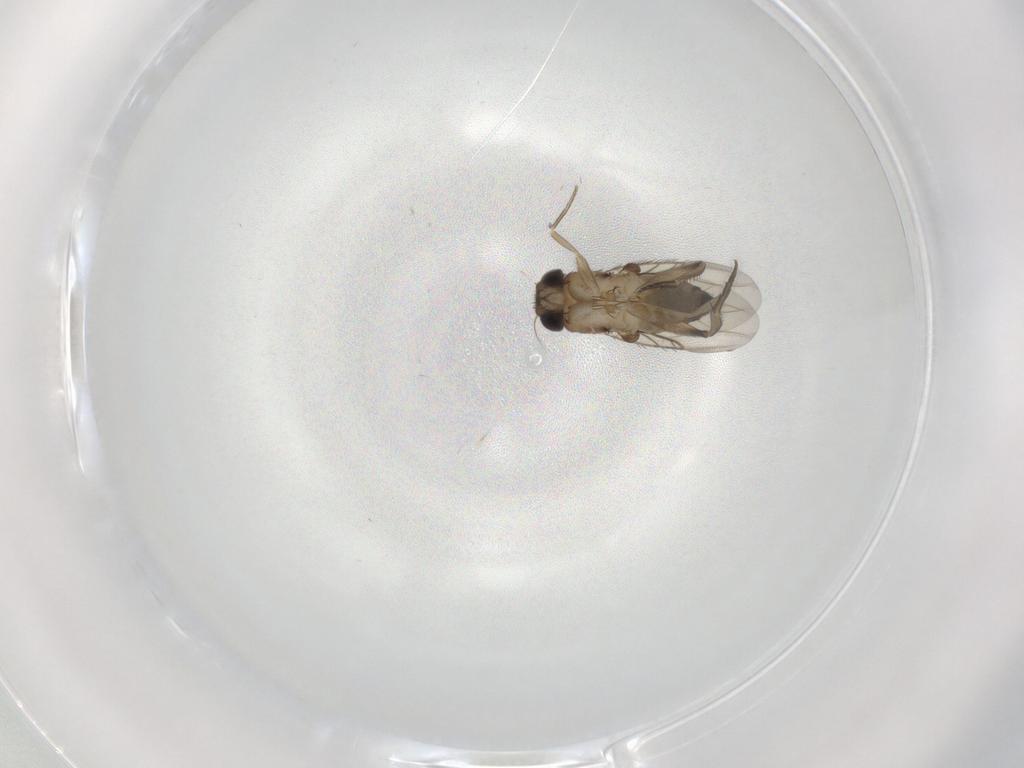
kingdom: Animalia
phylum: Arthropoda
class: Insecta
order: Diptera
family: Phoridae
